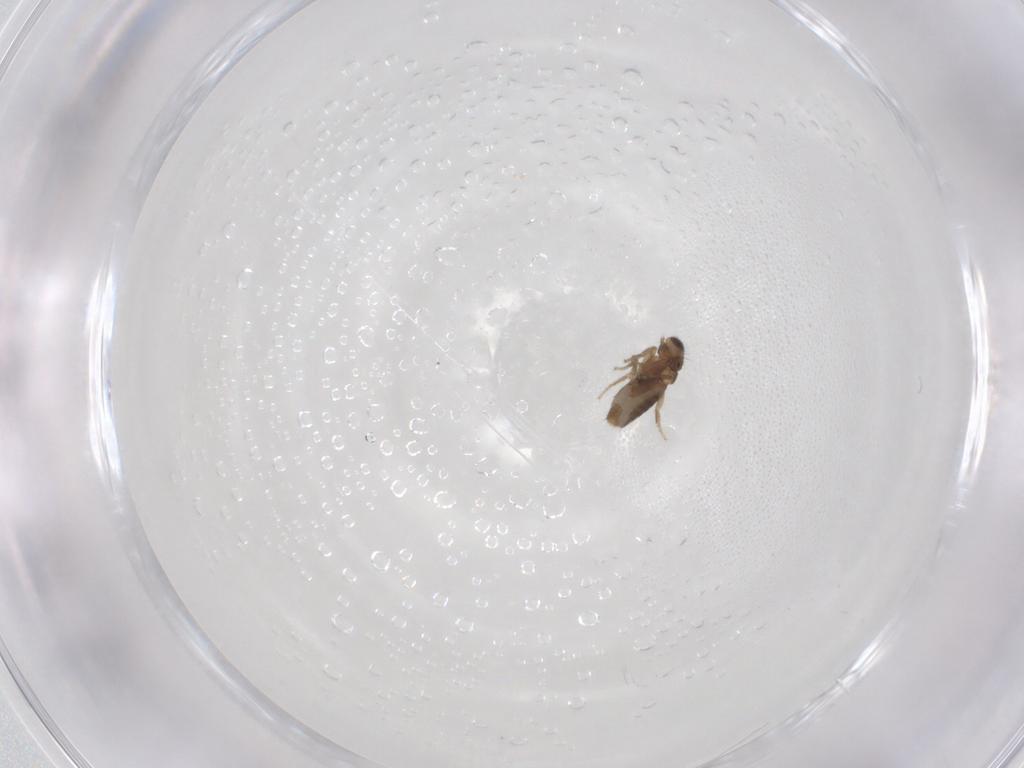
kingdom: Animalia
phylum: Arthropoda
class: Insecta
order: Diptera
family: Phoridae
